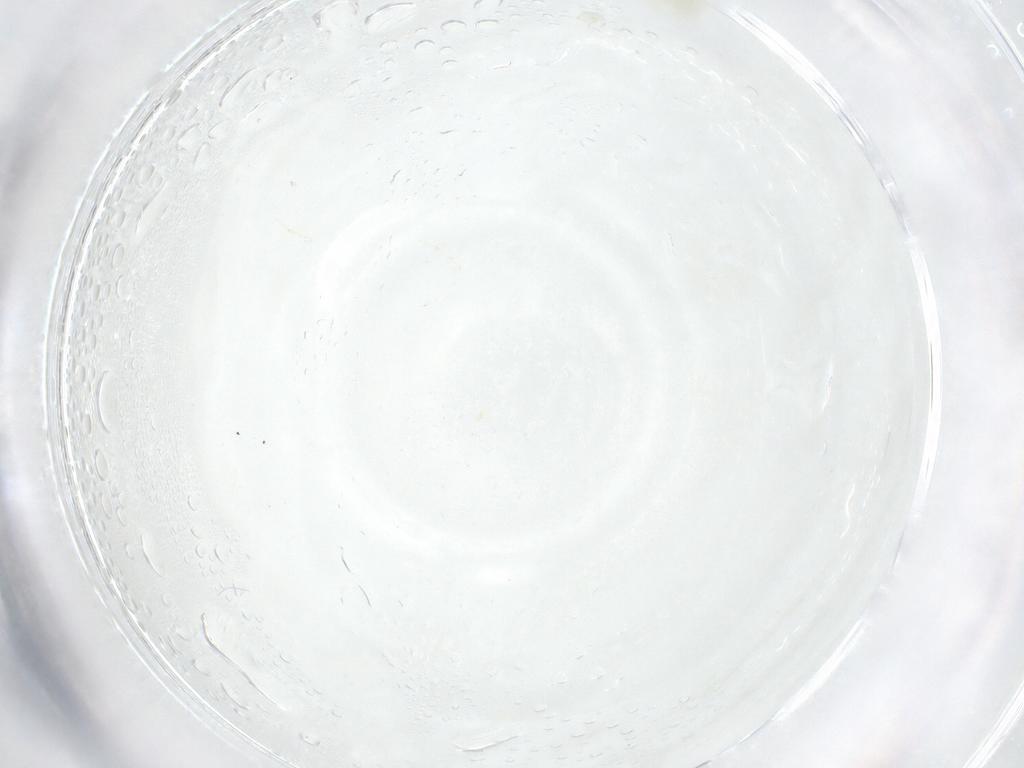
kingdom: Animalia
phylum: Arthropoda
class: Insecta
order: Diptera
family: Cecidomyiidae
